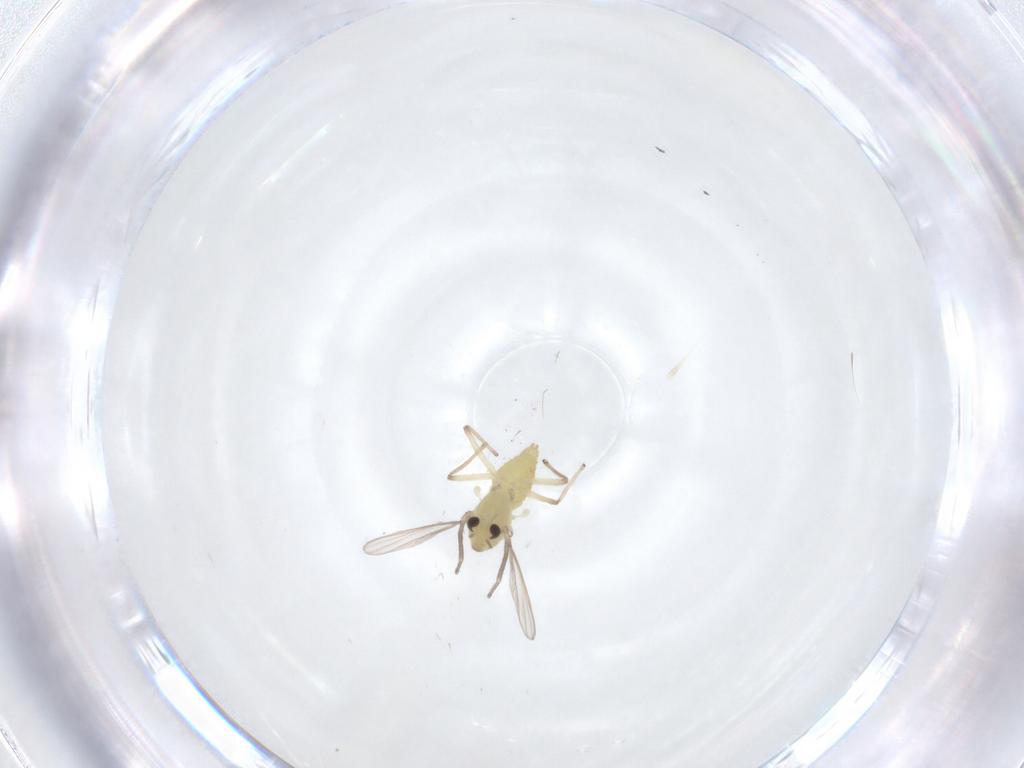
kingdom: Animalia
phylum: Arthropoda
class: Insecta
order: Diptera
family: Chironomidae
